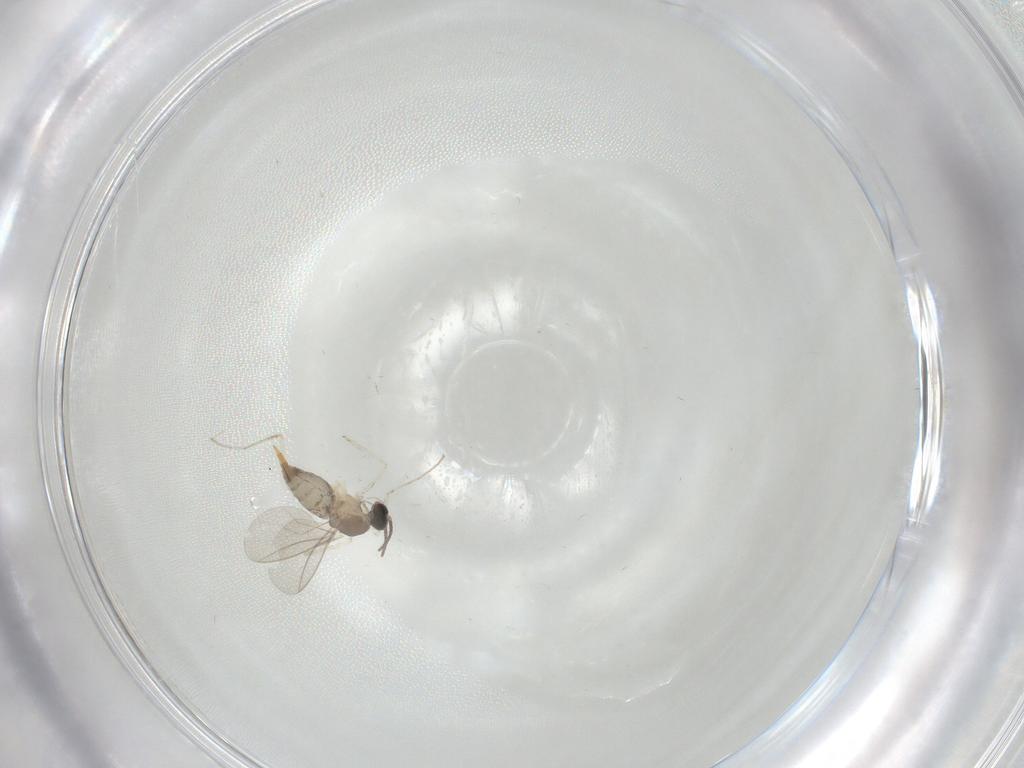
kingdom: Animalia
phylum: Arthropoda
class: Insecta
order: Diptera
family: Cecidomyiidae
